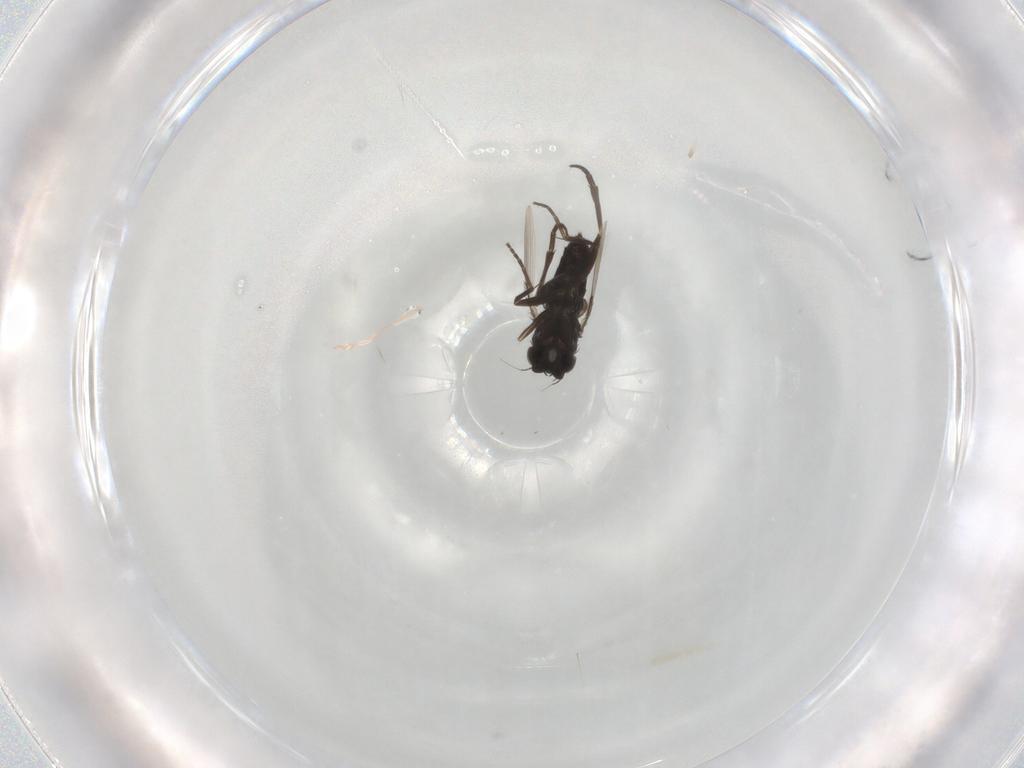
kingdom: Animalia
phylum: Arthropoda
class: Insecta
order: Diptera
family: Phoridae
